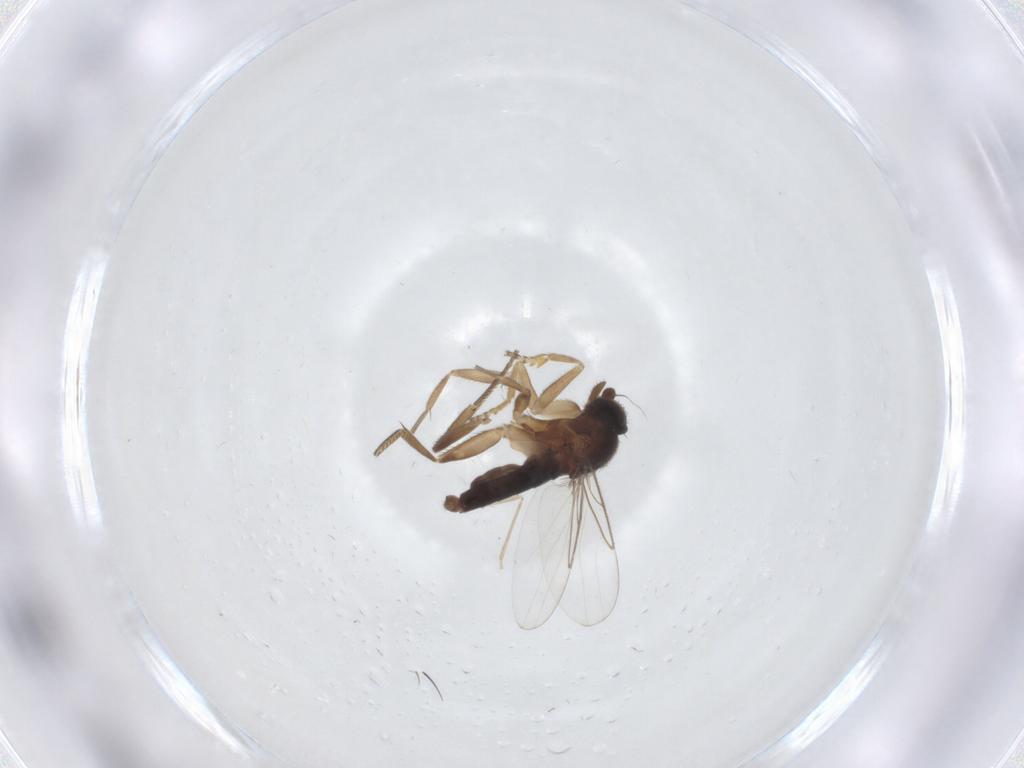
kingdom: Animalia
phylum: Arthropoda
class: Insecta
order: Diptera
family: Phoridae
